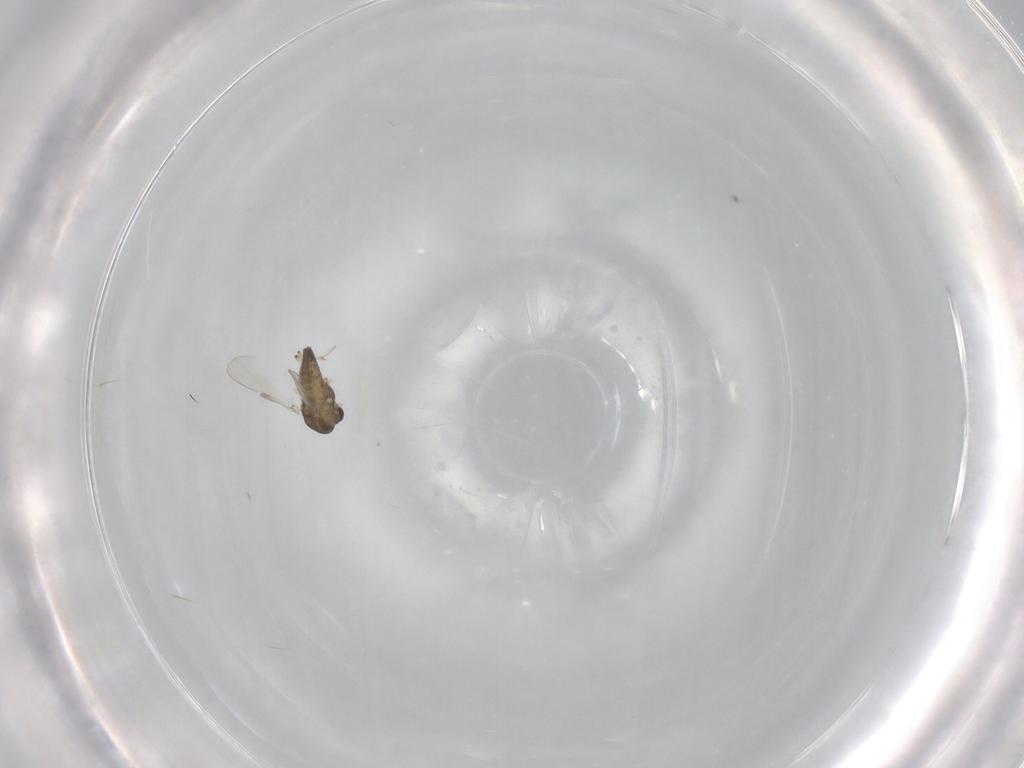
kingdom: Animalia
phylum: Arthropoda
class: Insecta
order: Diptera
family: Chironomidae
